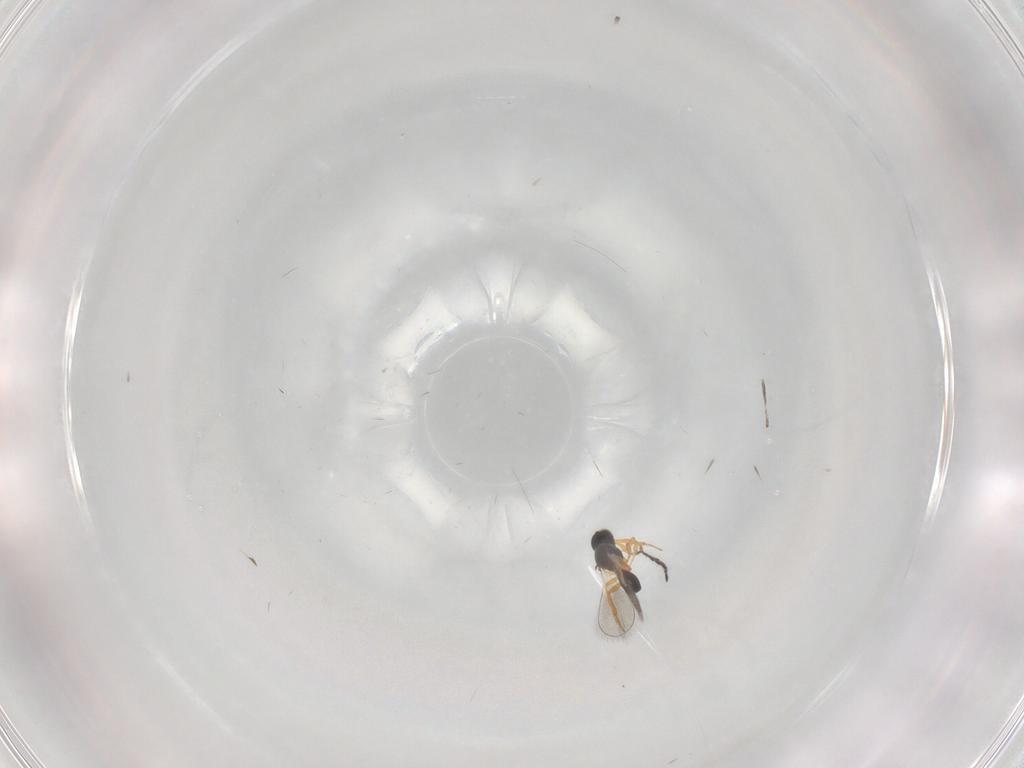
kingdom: Animalia
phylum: Arthropoda
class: Insecta
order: Hymenoptera
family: Platygastridae
